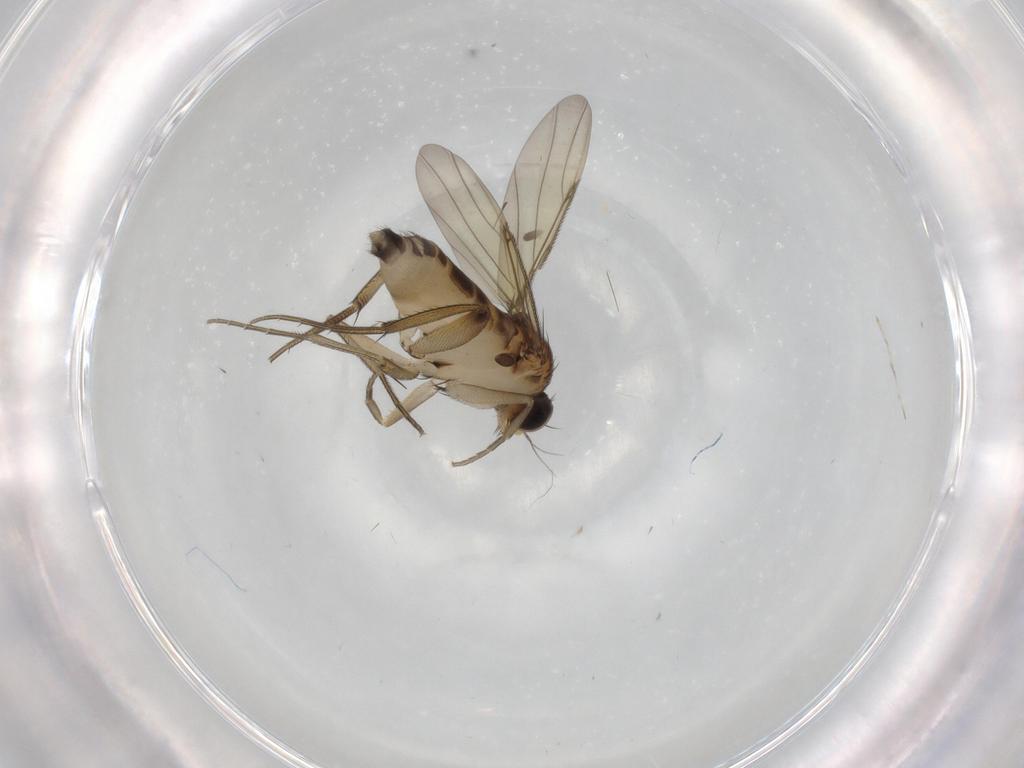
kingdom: Animalia
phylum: Arthropoda
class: Insecta
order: Diptera
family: Phoridae
